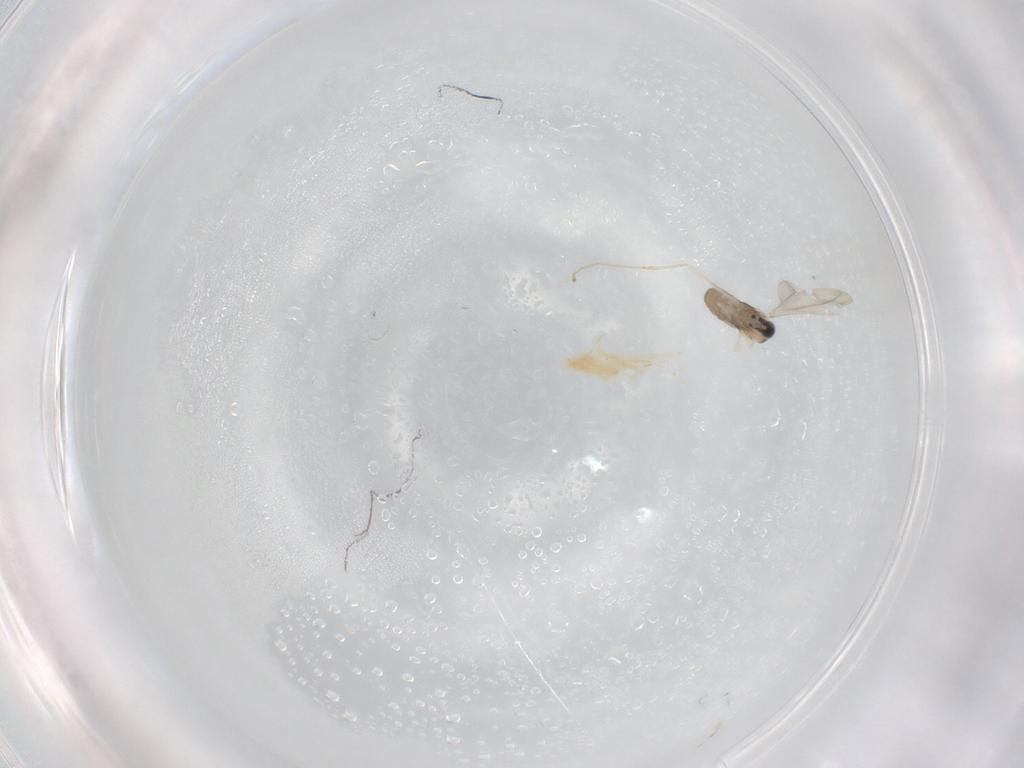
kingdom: Animalia
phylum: Arthropoda
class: Insecta
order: Diptera
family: Cecidomyiidae
